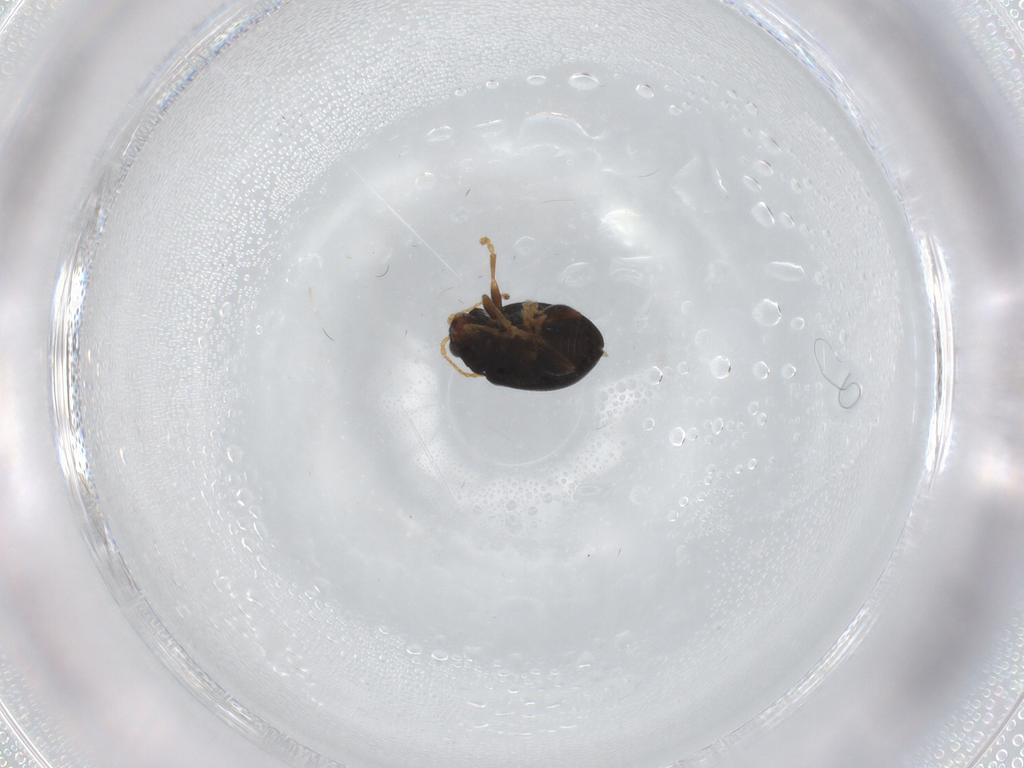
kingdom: Animalia
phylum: Arthropoda
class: Insecta
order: Coleoptera
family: Chrysomelidae
